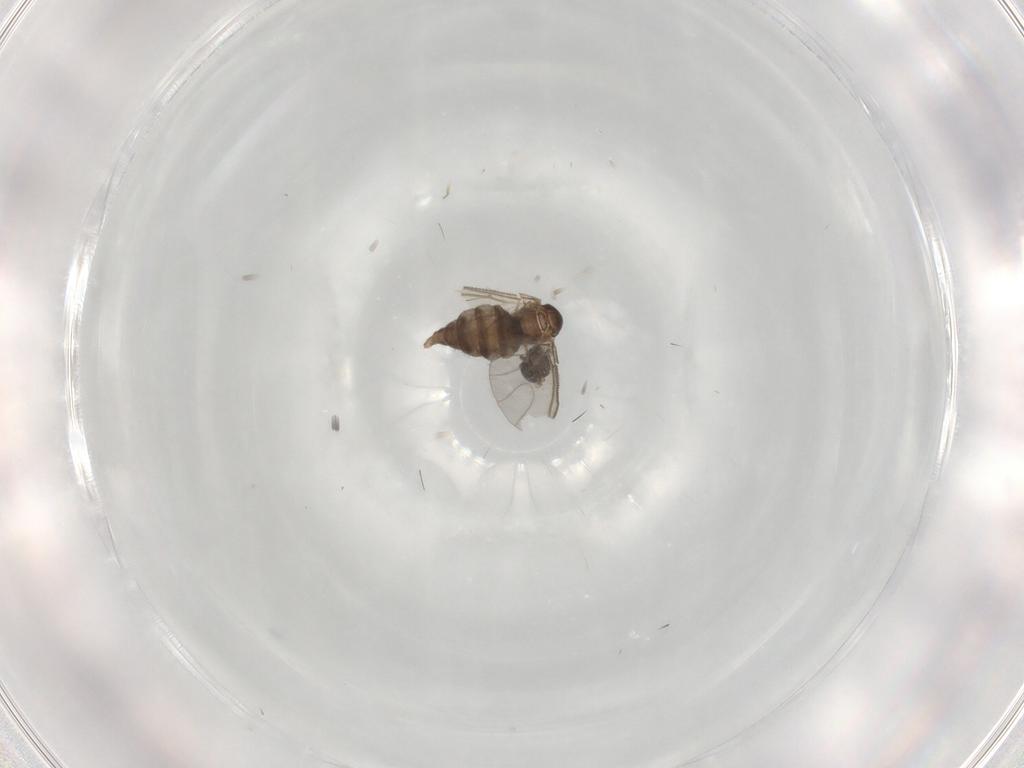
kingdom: Animalia
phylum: Arthropoda
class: Insecta
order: Diptera
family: Sciaridae
